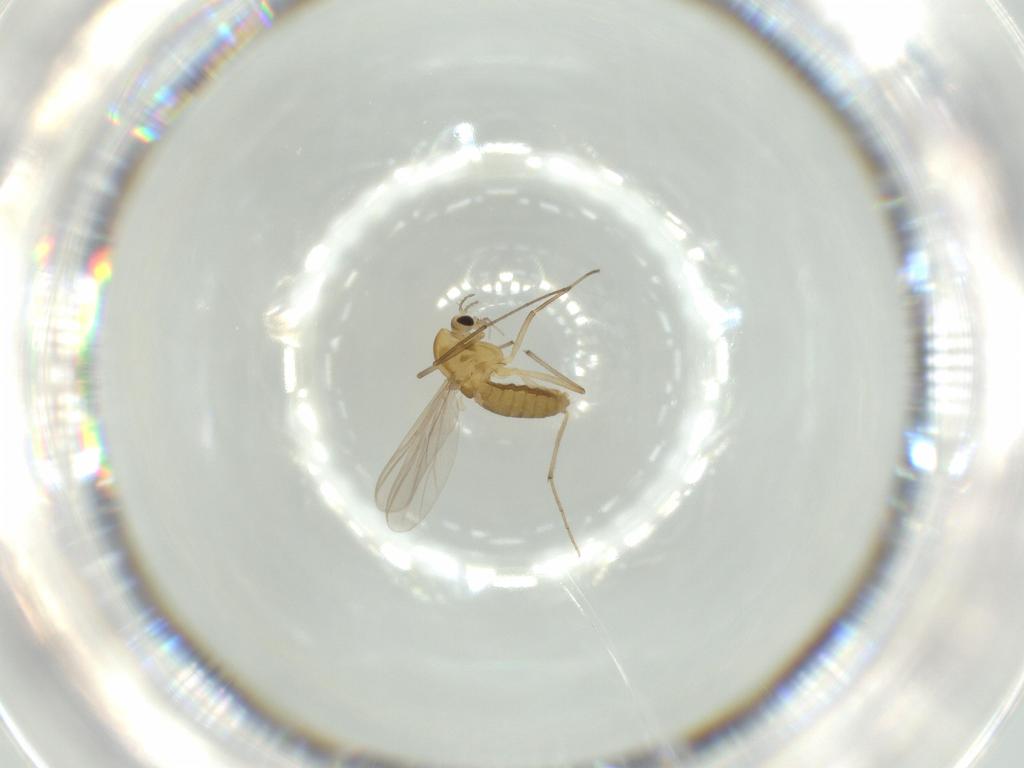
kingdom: Animalia
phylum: Arthropoda
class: Insecta
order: Diptera
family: Chironomidae
